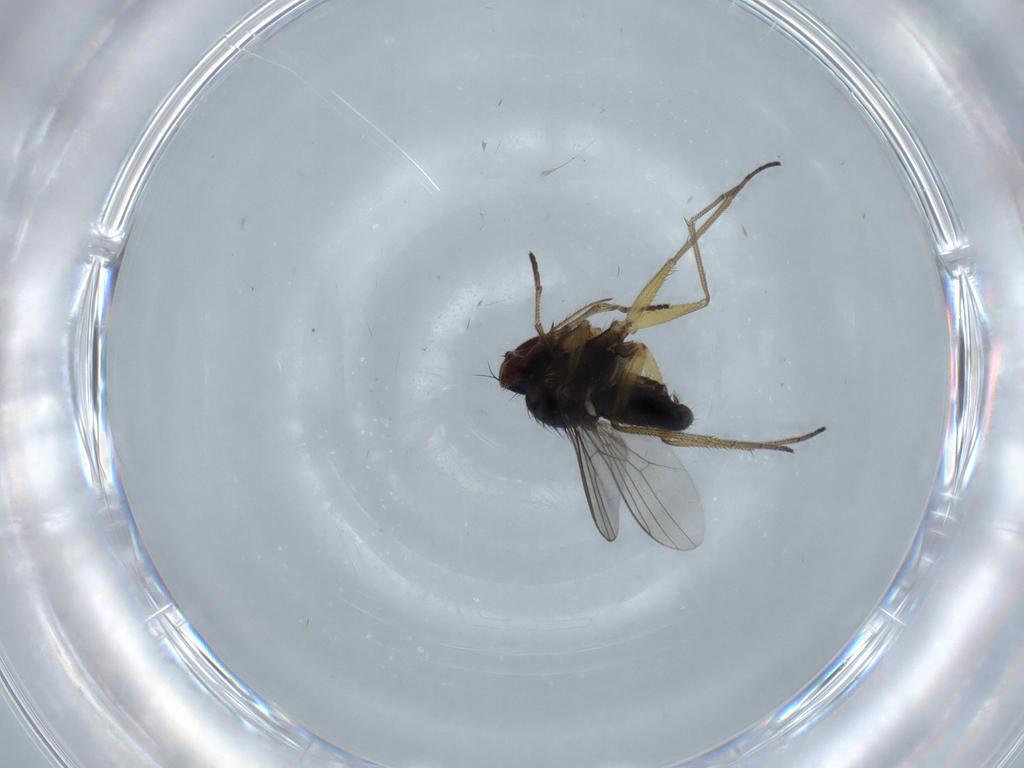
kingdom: Animalia
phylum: Arthropoda
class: Insecta
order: Diptera
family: Dolichopodidae
